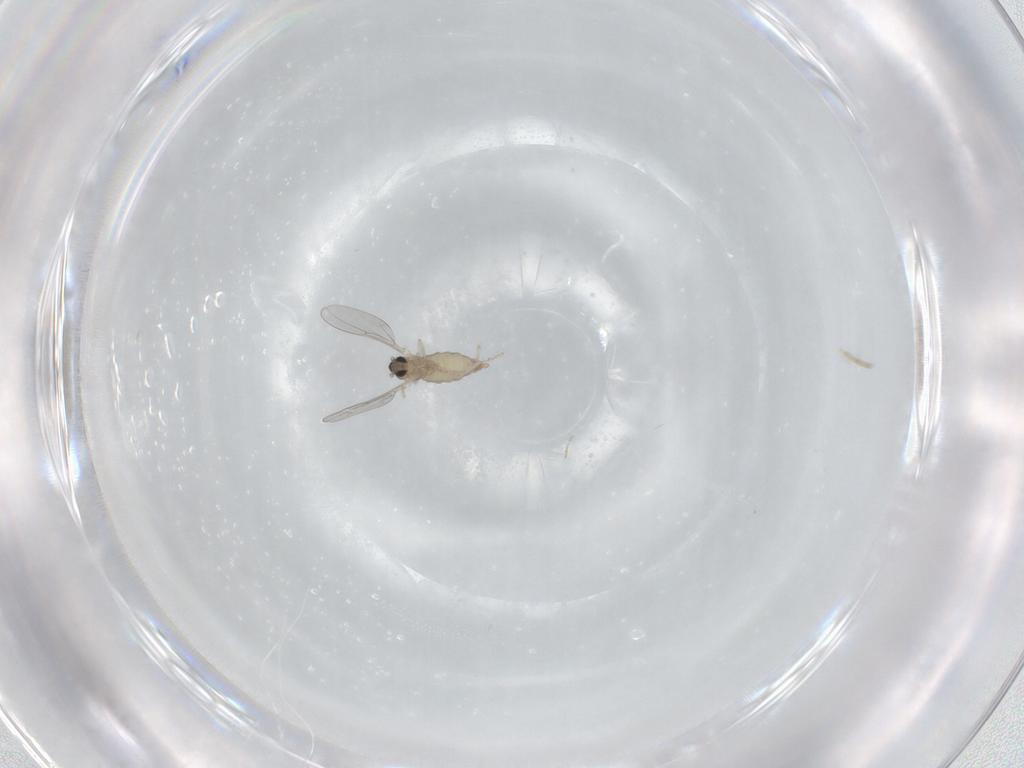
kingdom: Animalia
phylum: Arthropoda
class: Insecta
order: Diptera
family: Cecidomyiidae
